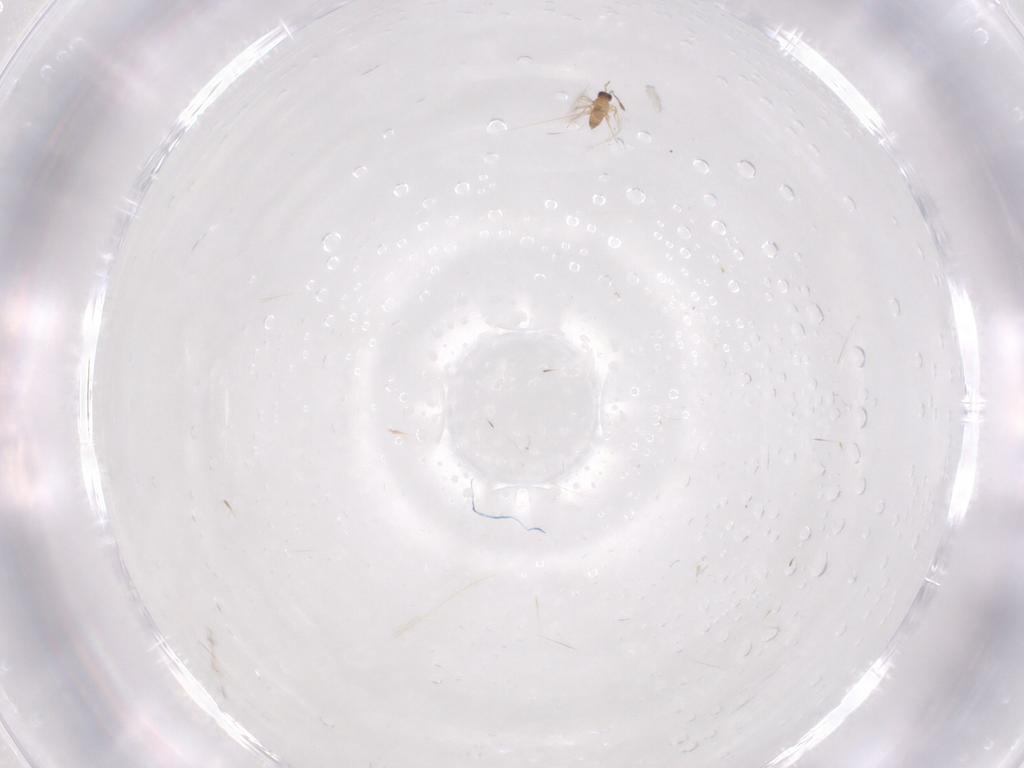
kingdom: Animalia
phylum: Arthropoda
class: Insecta
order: Hymenoptera
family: Mymaridae
